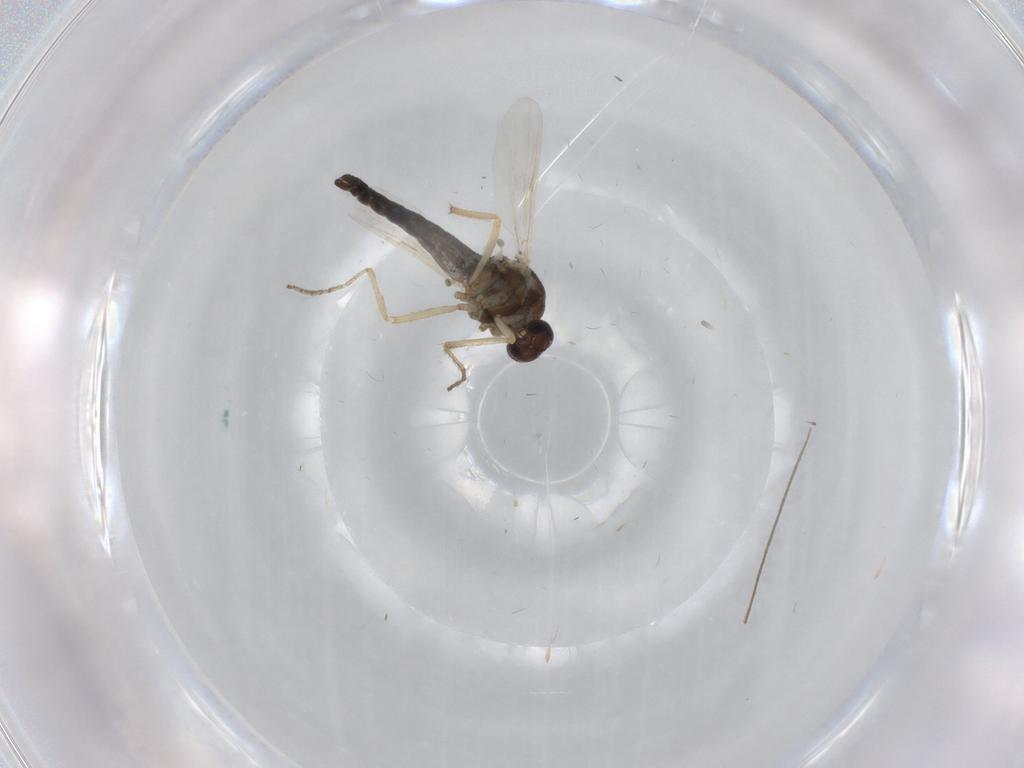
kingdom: Animalia
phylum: Arthropoda
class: Insecta
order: Diptera
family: Ceratopogonidae
